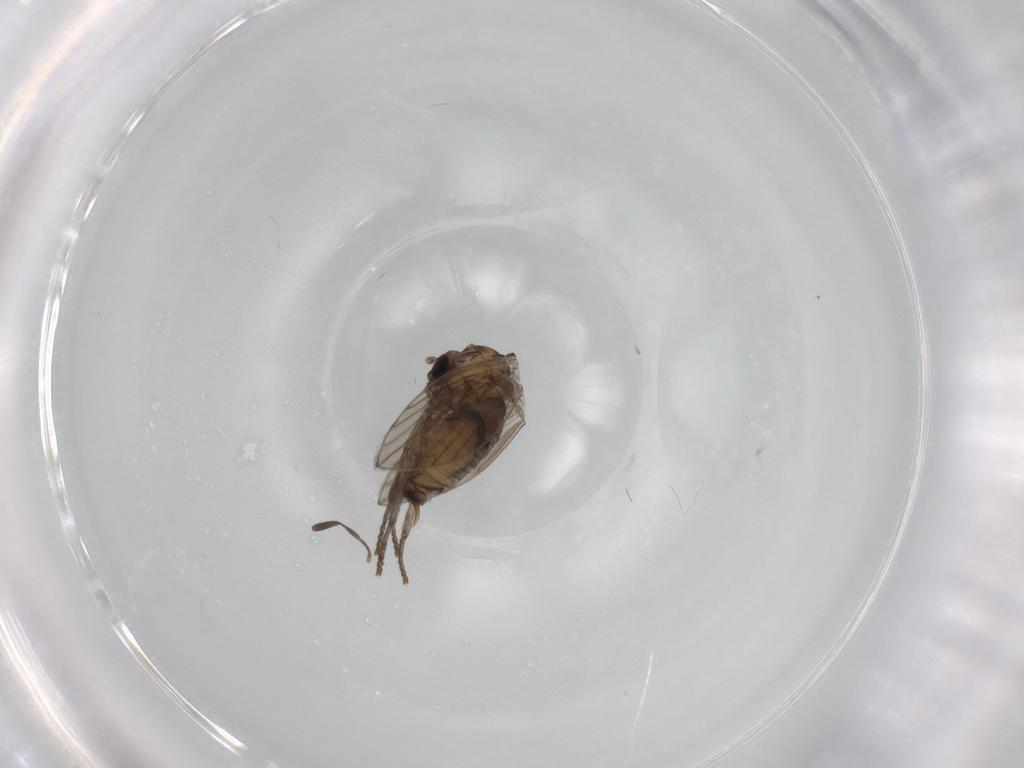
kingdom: Animalia
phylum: Arthropoda
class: Insecta
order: Diptera
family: Psychodidae
